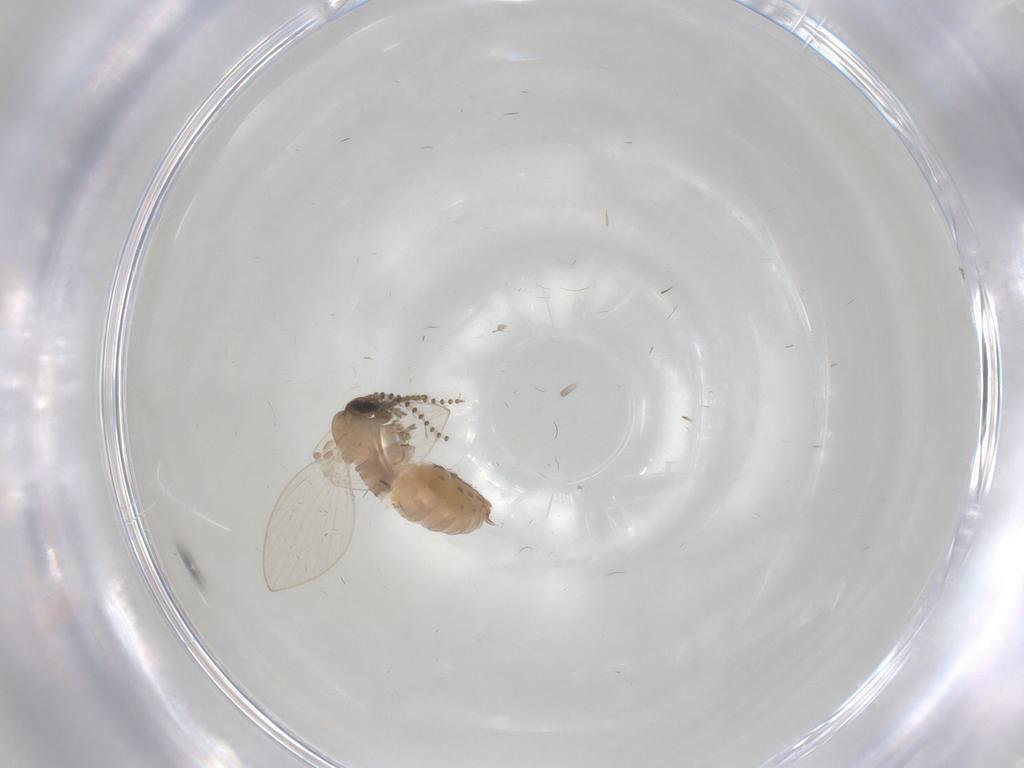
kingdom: Animalia
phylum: Arthropoda
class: Insecta
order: Diptera
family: Psychodidae
